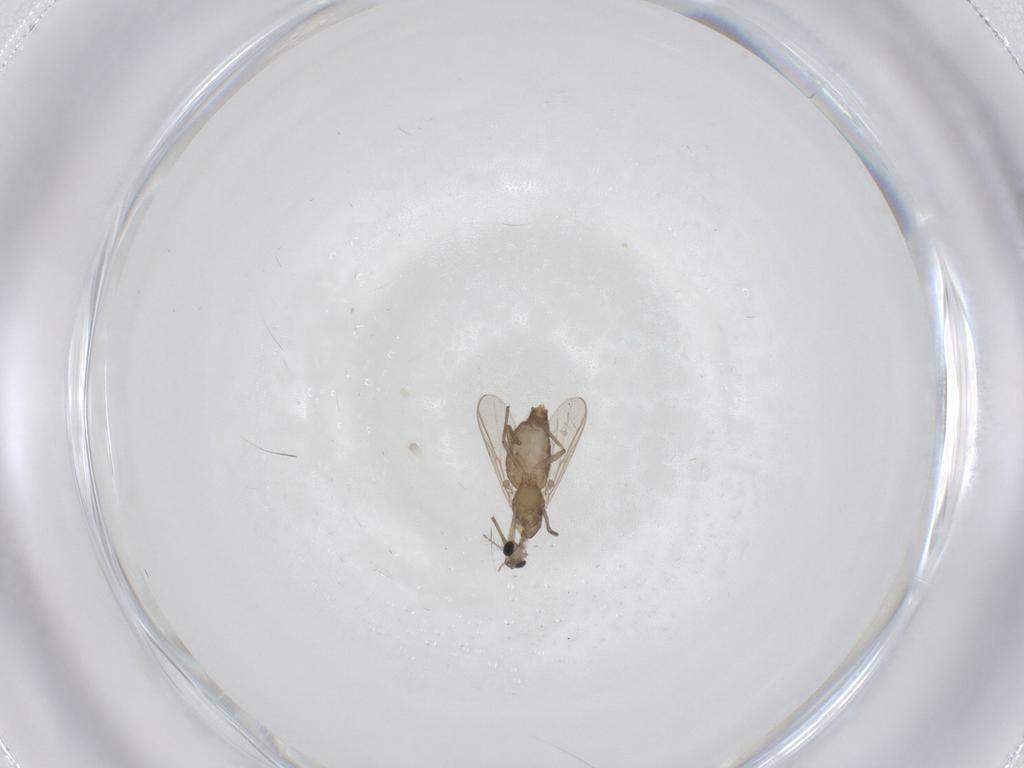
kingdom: Animalia
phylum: Arthropoda
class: Insecta
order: Diptera
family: Chironomidae
